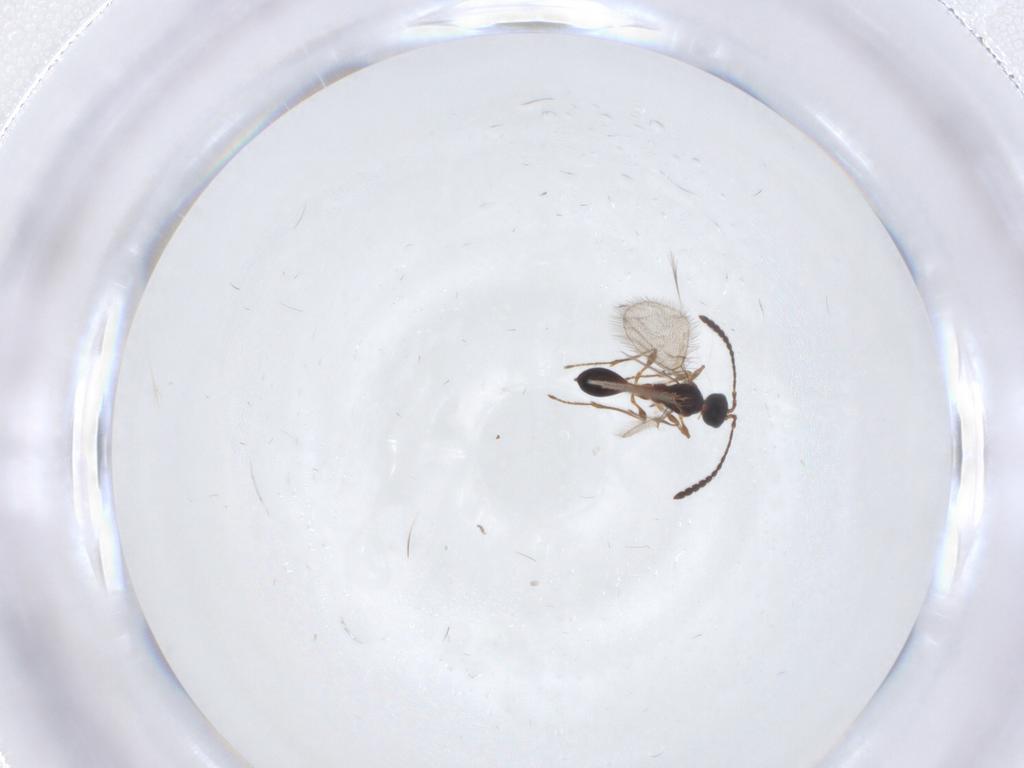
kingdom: Animalia
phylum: Arthropoda
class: Insecta
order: Hymenoptera
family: Diapriidae
